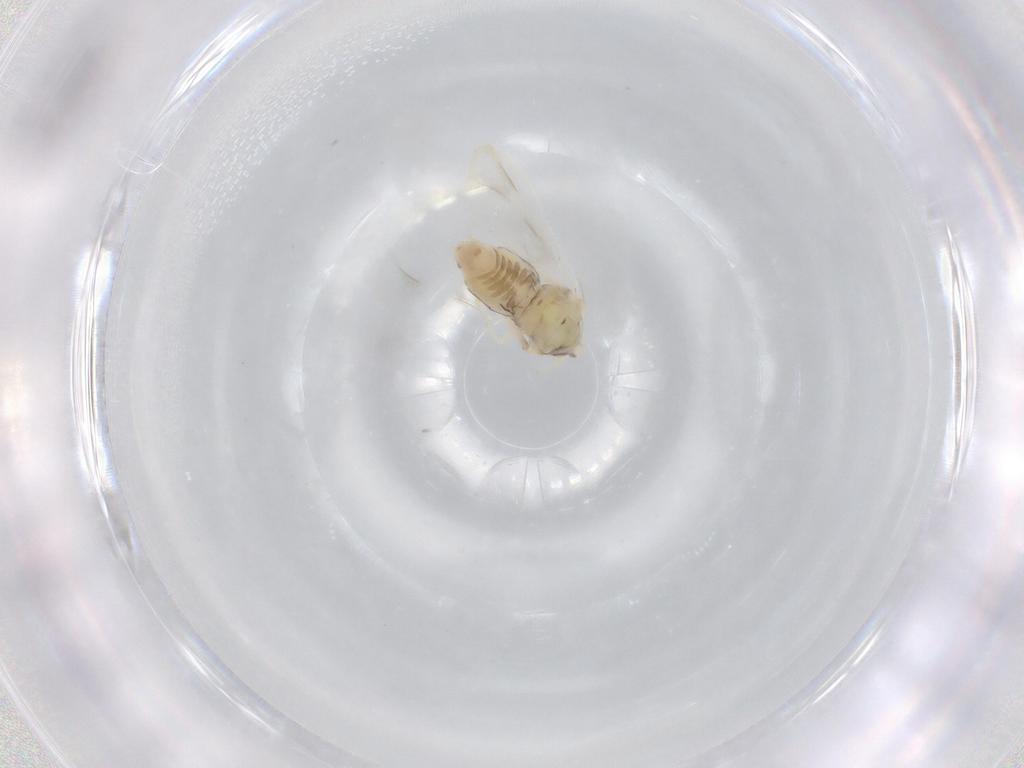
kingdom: Animalia
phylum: Arthropoda
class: Insecta
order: Hemiptera
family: Aleyrodidae
